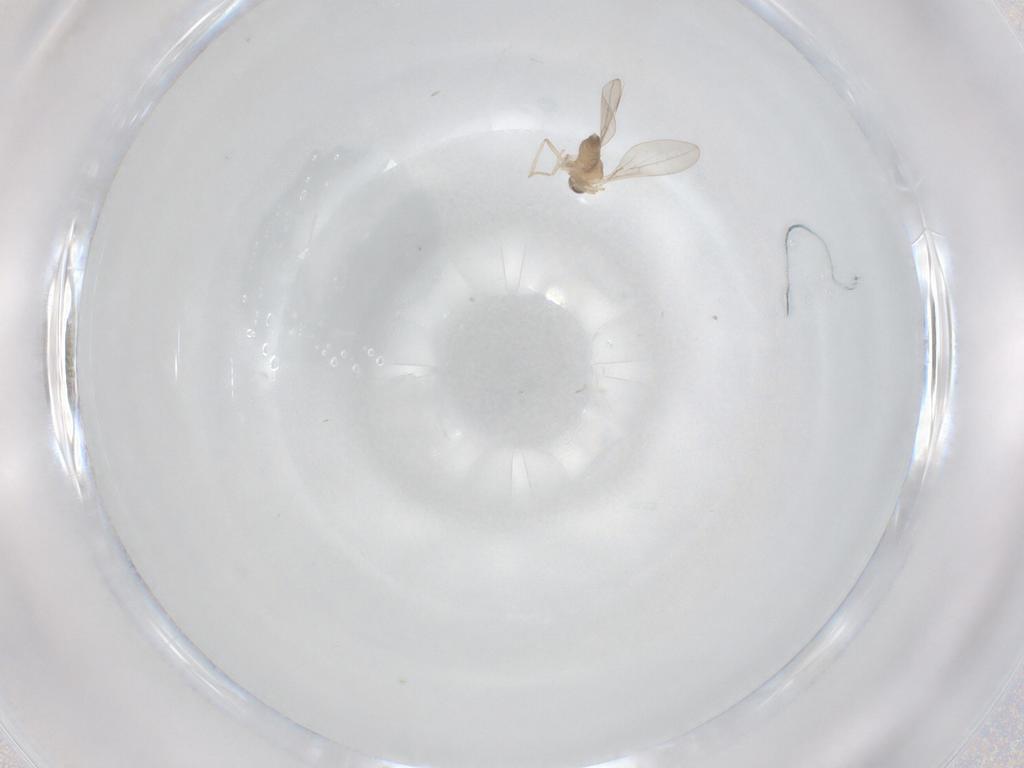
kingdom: Animalia
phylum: Arthropoda
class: Insecta
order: Diptera
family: Cecidomyiidae
